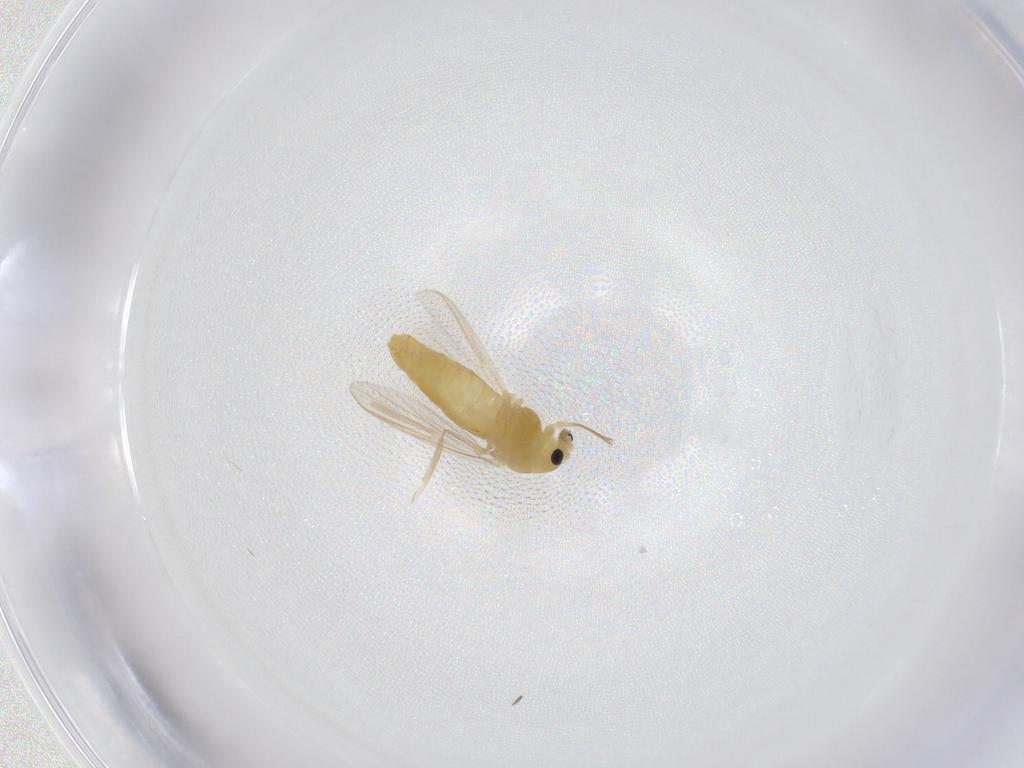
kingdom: Animalia
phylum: Arthropoda
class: Insecta
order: Diptera
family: Chironomidae
